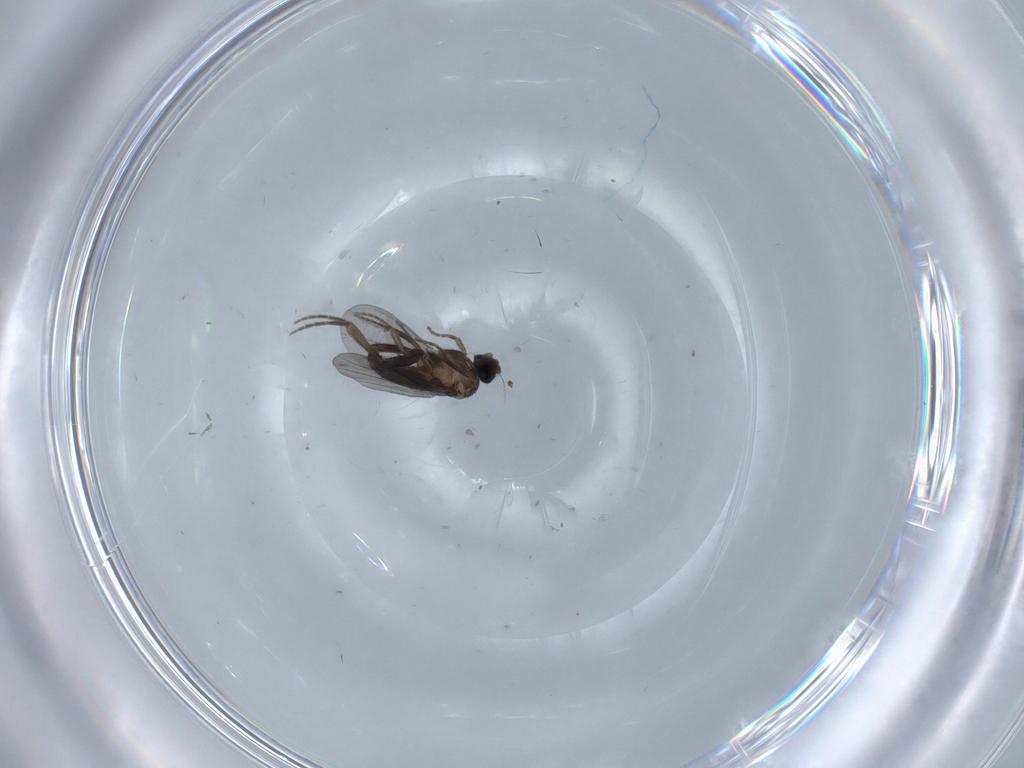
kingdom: Animalia
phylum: Arthropoda
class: Insecta
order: Diptera
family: Phoridae
